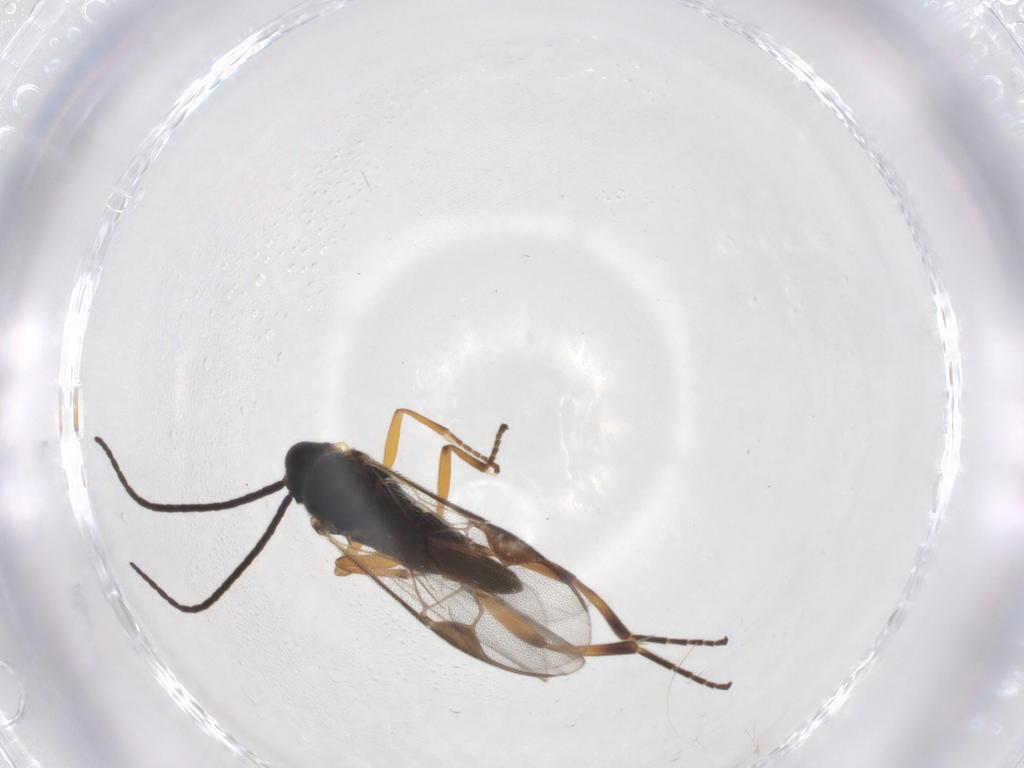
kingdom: Animalia
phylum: Arthropoda
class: Insecta
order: Hymenoptera
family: Braconidae
